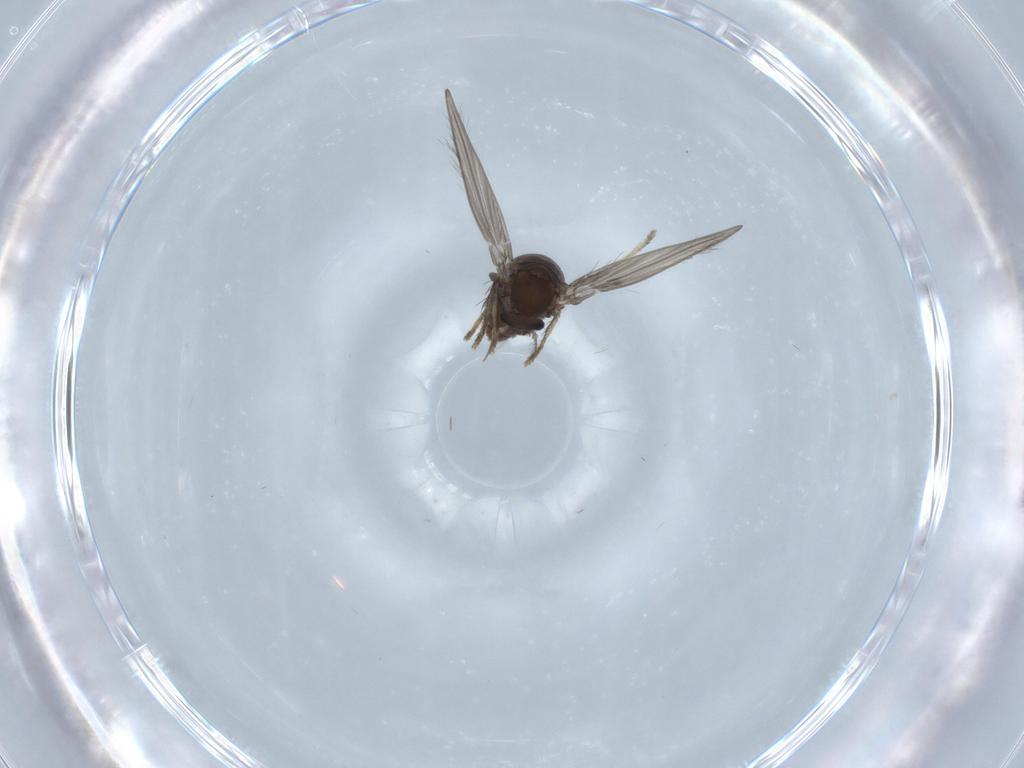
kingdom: Animalia
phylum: Arthropoda
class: Insecta
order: Diptera
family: Psychodidae
